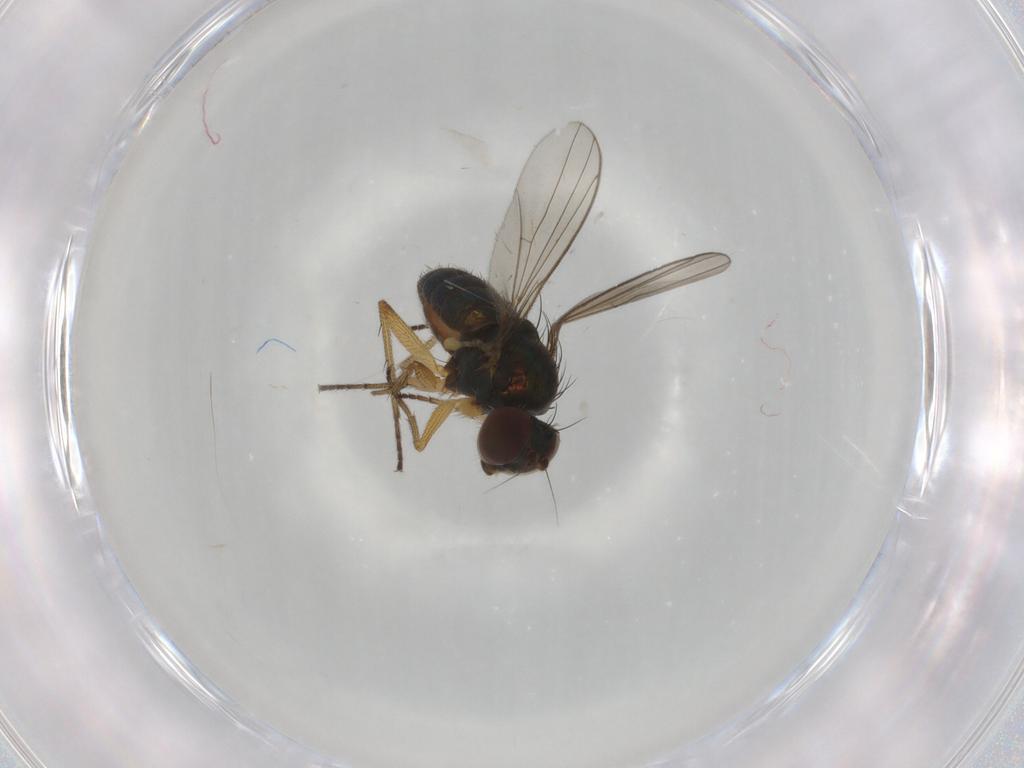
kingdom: Animalia
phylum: Arthropoda
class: Insecta
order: Diptera
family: Dolichopodidae
